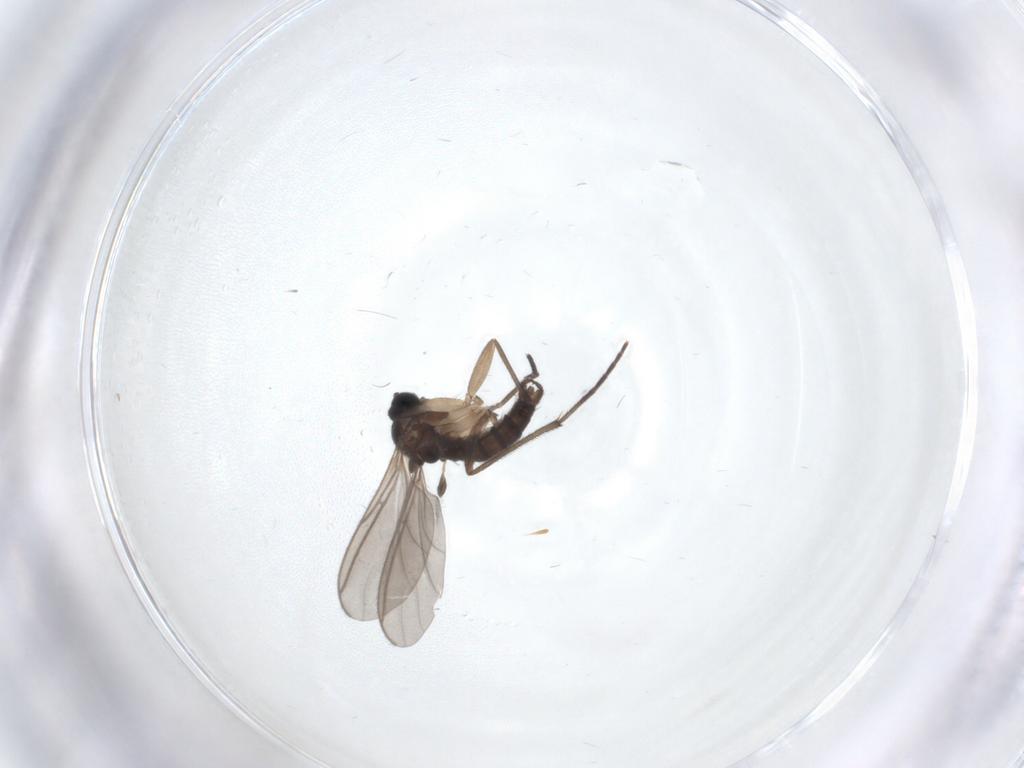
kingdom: Animalia
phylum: Arthropoda
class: Insecta
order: Diptera
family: Sciaridae
